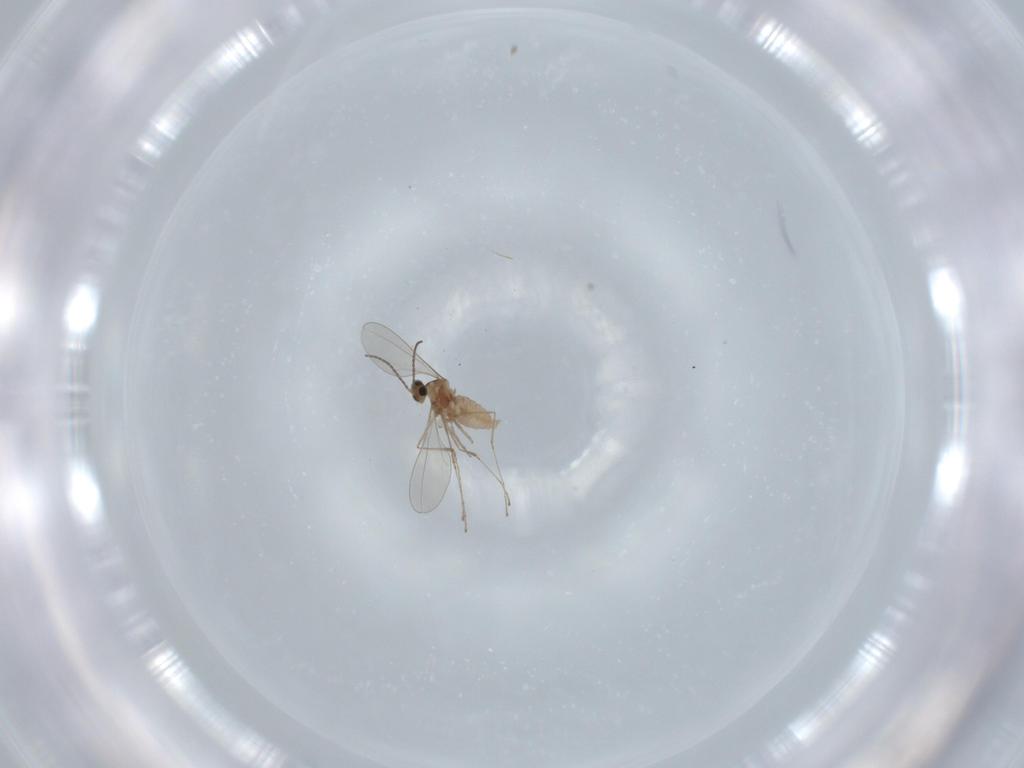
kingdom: Animalia
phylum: Arthropoda
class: Insecta
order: Diptera
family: Cecidomyiidae
